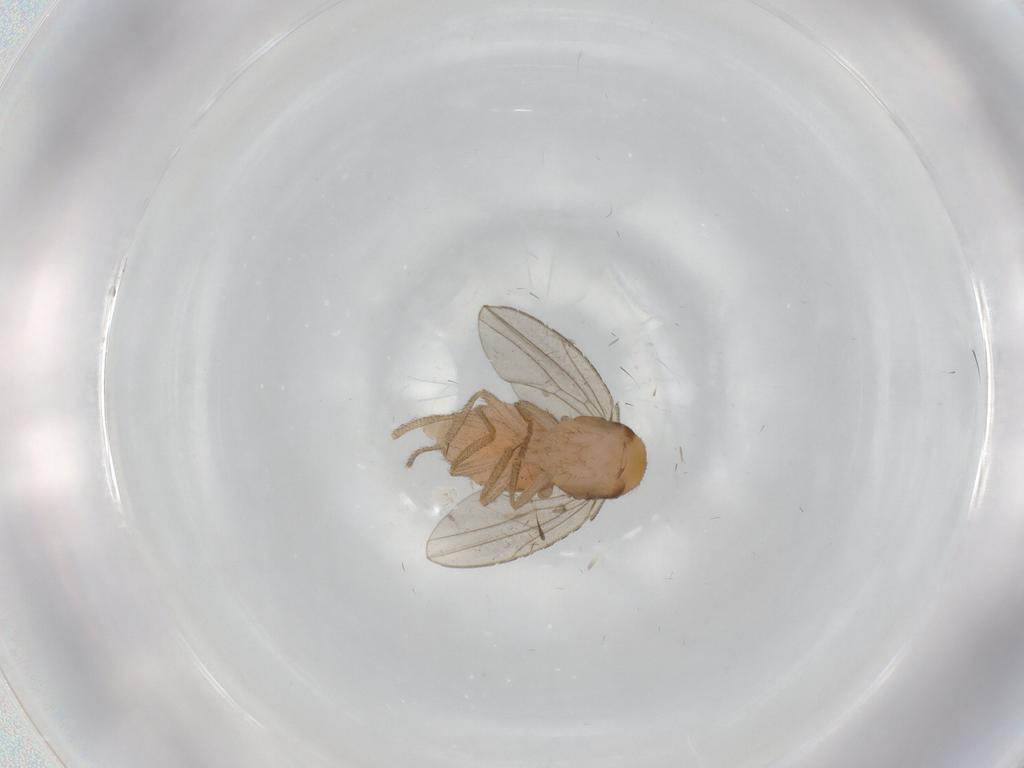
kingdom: Animalia
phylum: Arthropoda
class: Insecta
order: Diptera
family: Drosophilidae
